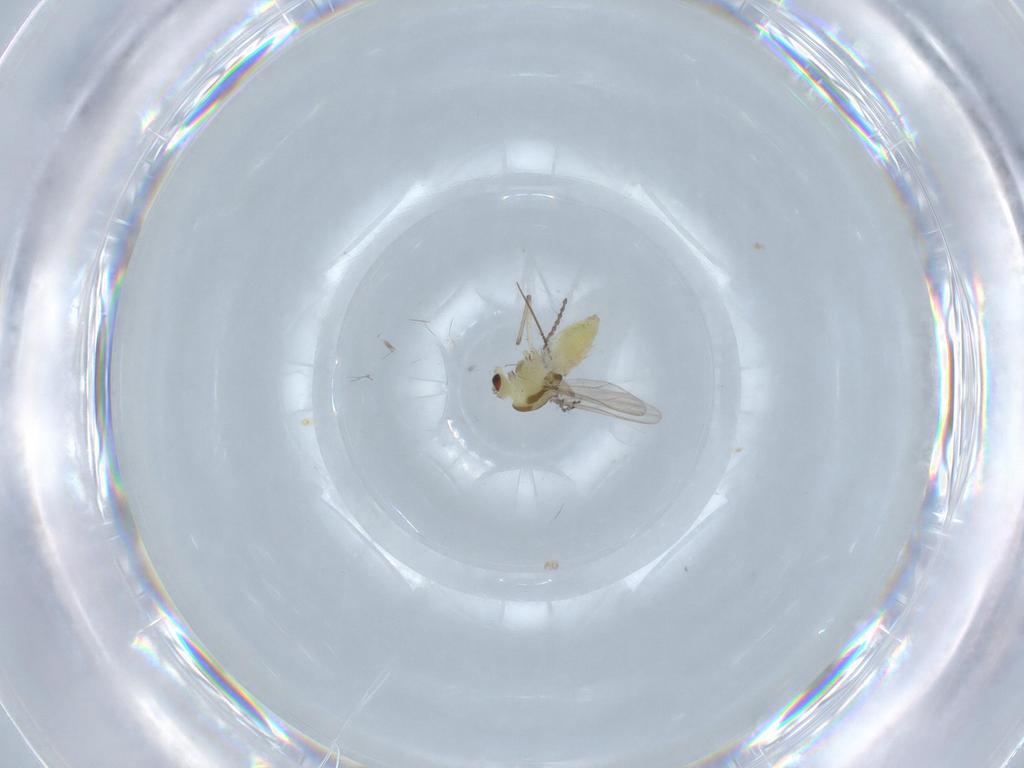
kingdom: Animalia
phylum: Arthropoda
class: Insecta
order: Diptera
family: Chironomidae
